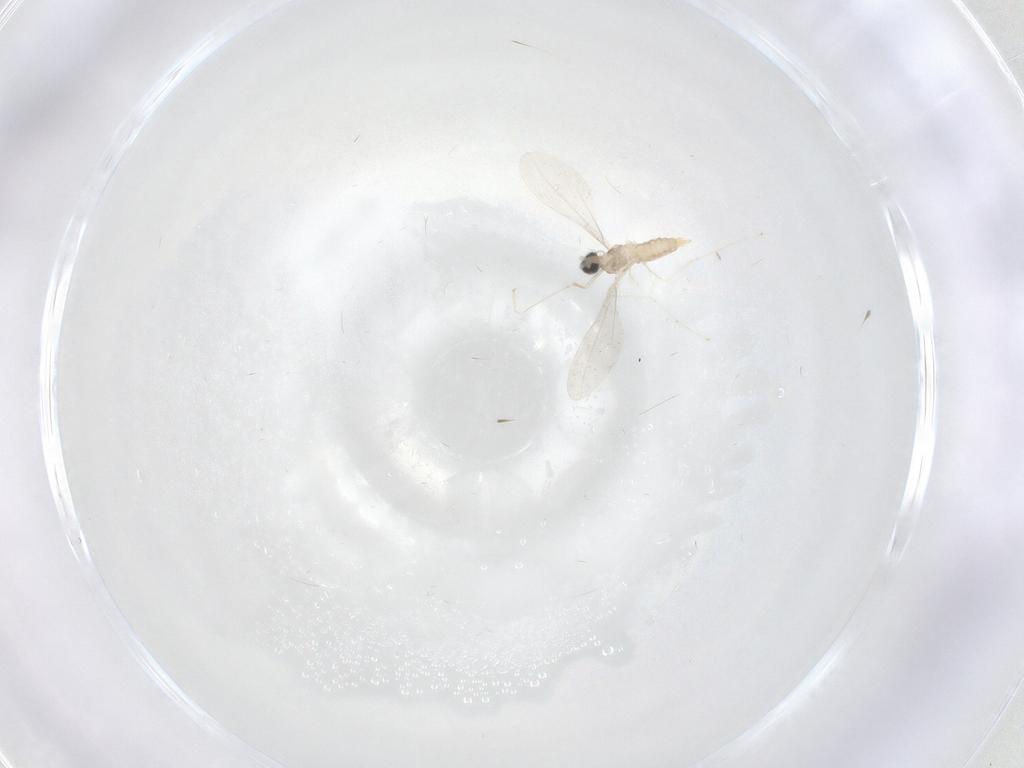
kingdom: Animalia
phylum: Arthropoda
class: Insecta
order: Diptera
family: Cecidomyiidae
